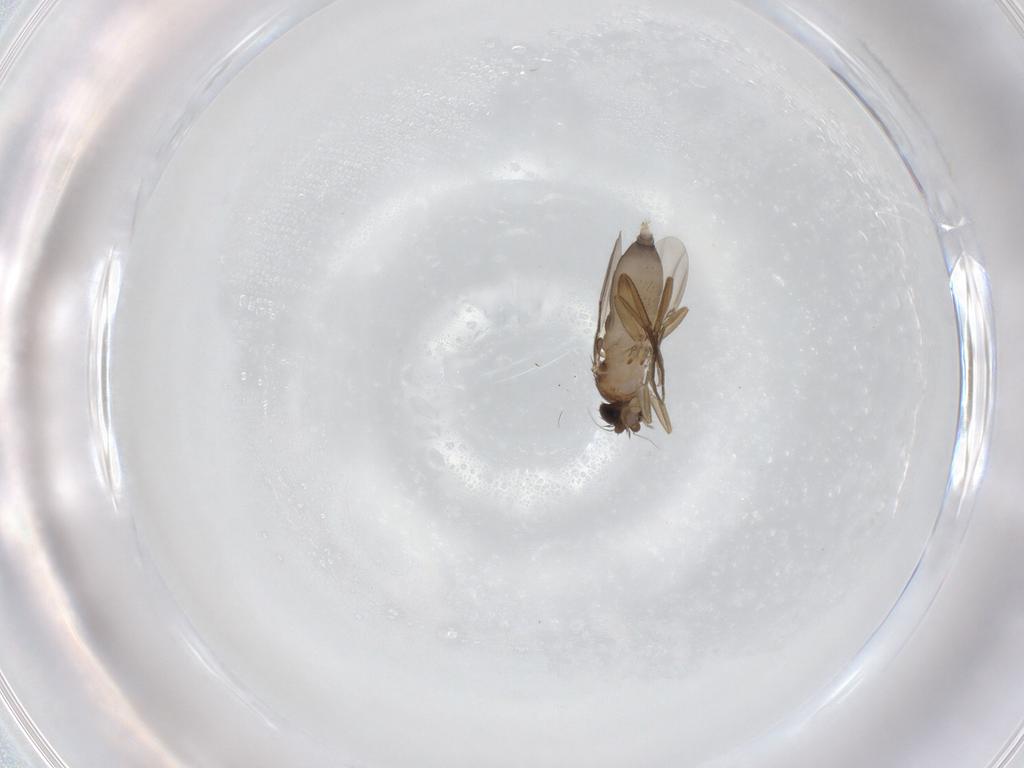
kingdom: Animalia
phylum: Arthropoda
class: Insecta
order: Diptera
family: Phoridae
